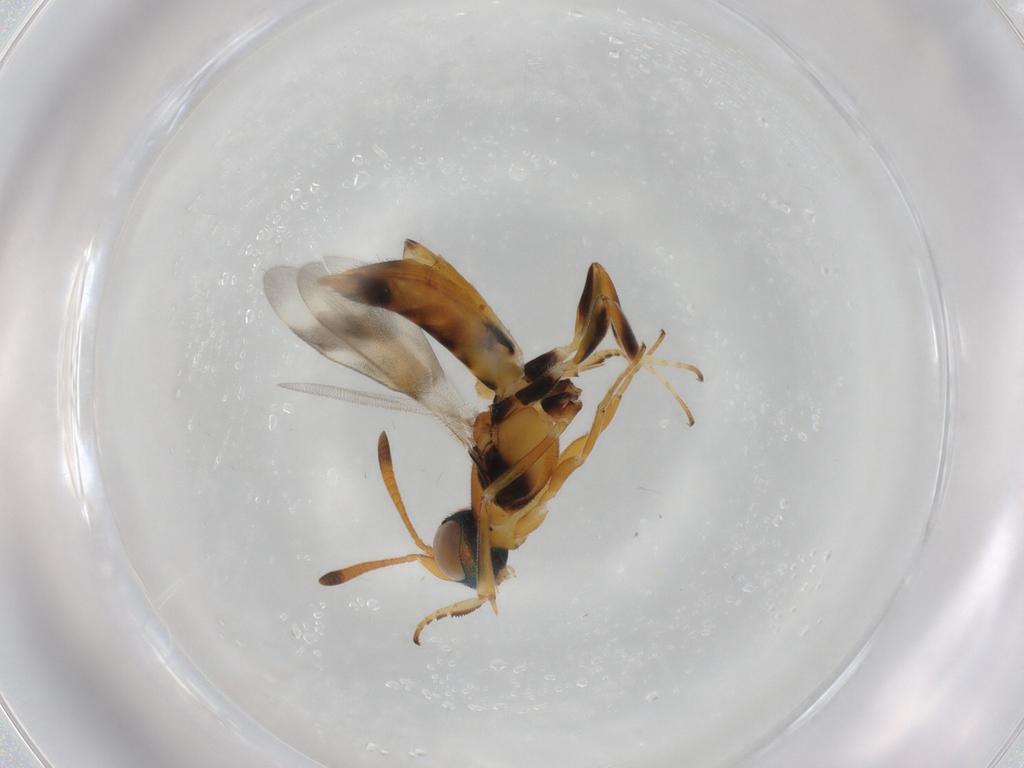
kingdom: Animalia
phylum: Arthropoda
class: Insecta
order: Hymenoptera
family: Eupelmidae
